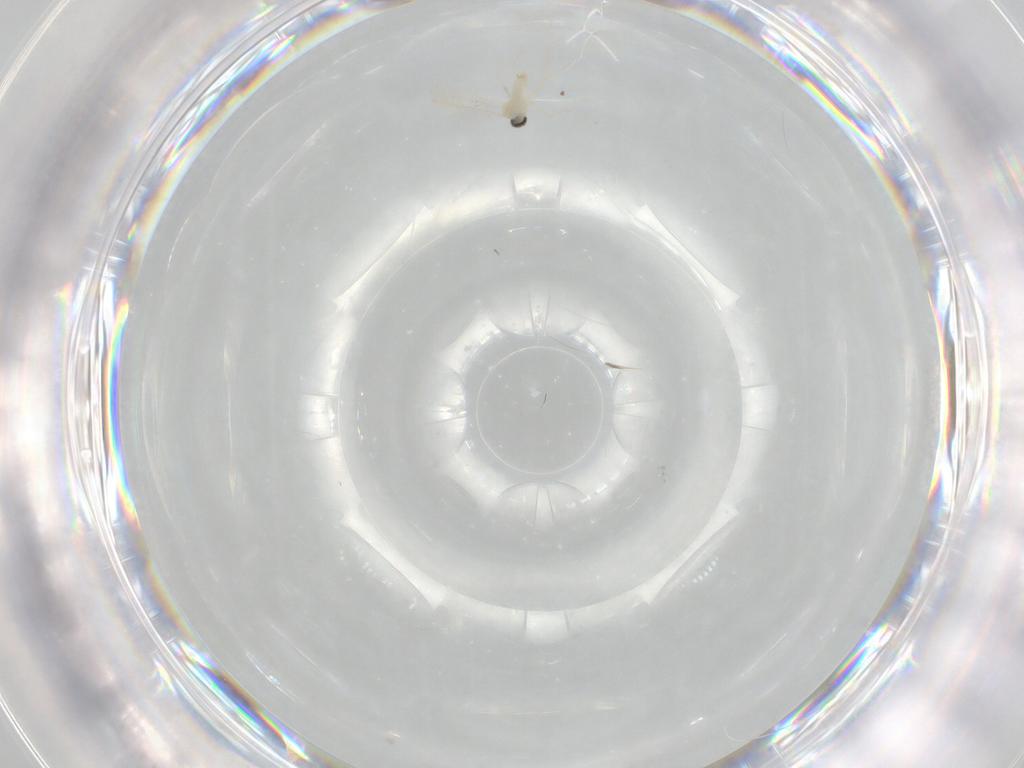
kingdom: Animalia
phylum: Arthropoda
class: Insecta
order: Diptera
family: Cecidomyiidae
